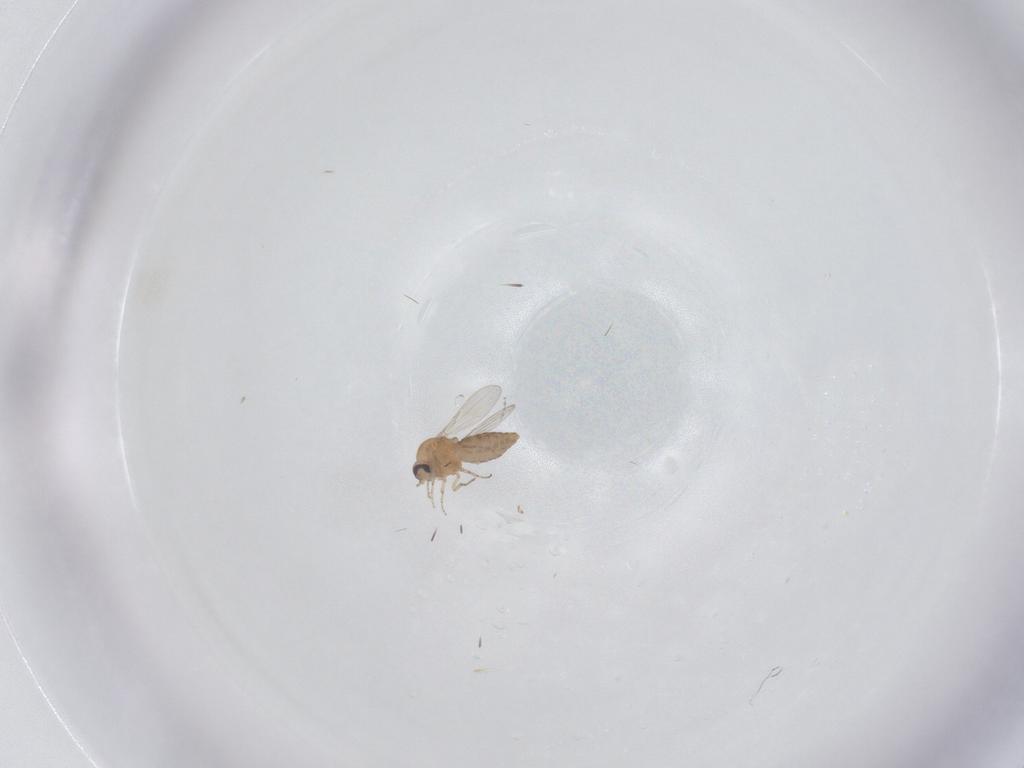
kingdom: Animalia
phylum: Arthropoda
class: Insecta
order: Diptera
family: Ceratopogonidae
